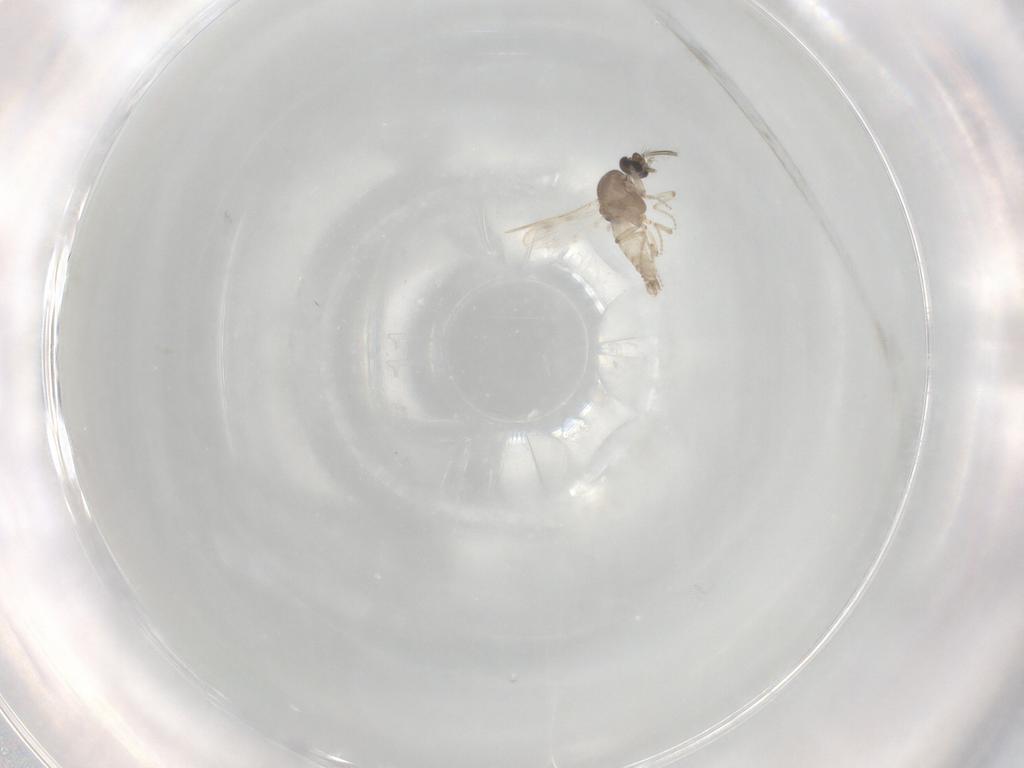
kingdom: Animalia
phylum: Arthropoda
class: Insecta
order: Diptera
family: Ceratopogonidae
